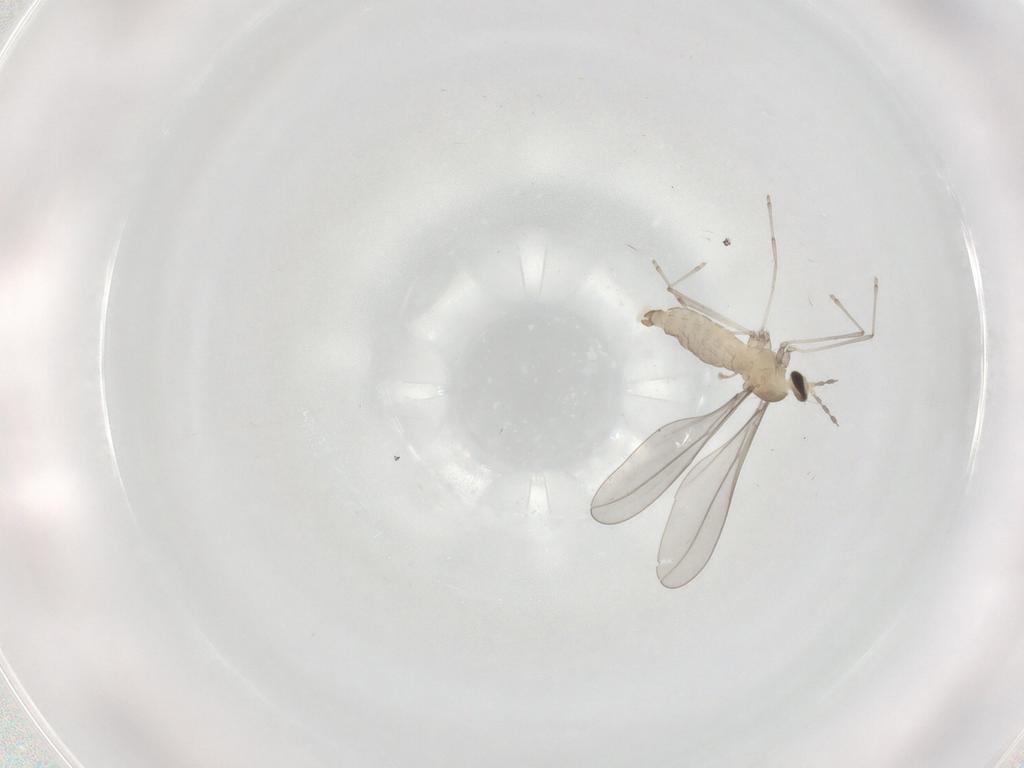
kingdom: Animalia
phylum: Arthropoda
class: Insecta
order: Diptera
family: Cecidomyiidae
